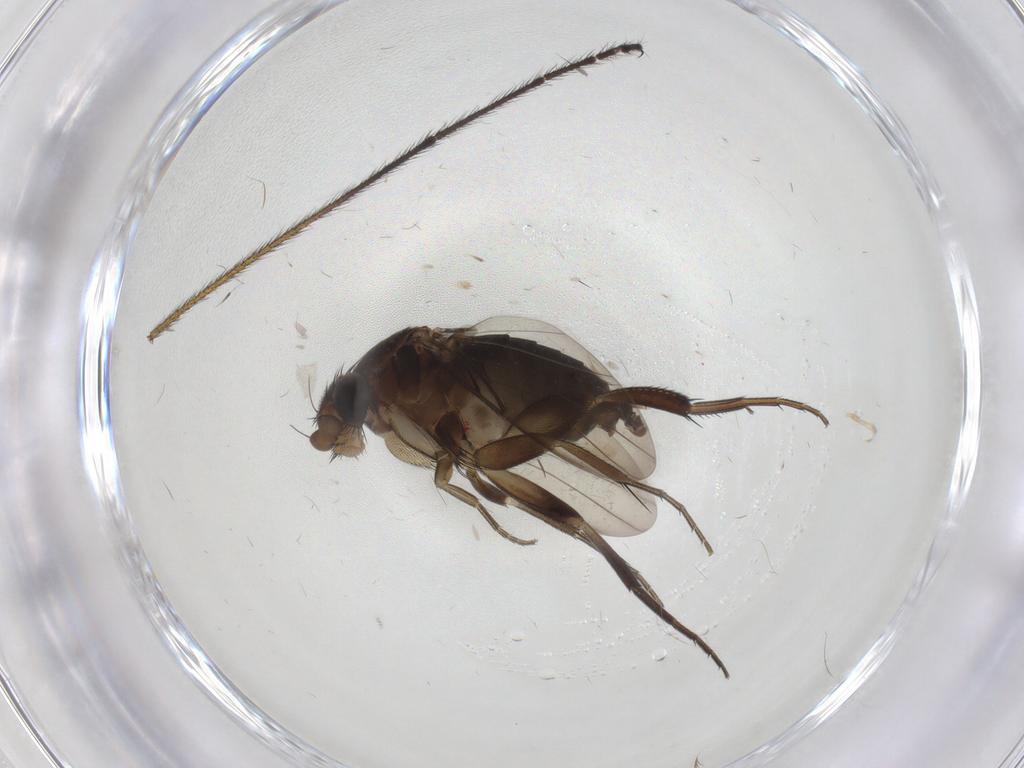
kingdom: Animalia
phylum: Arthropoda
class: Insecta
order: Diptera
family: Phoridae
